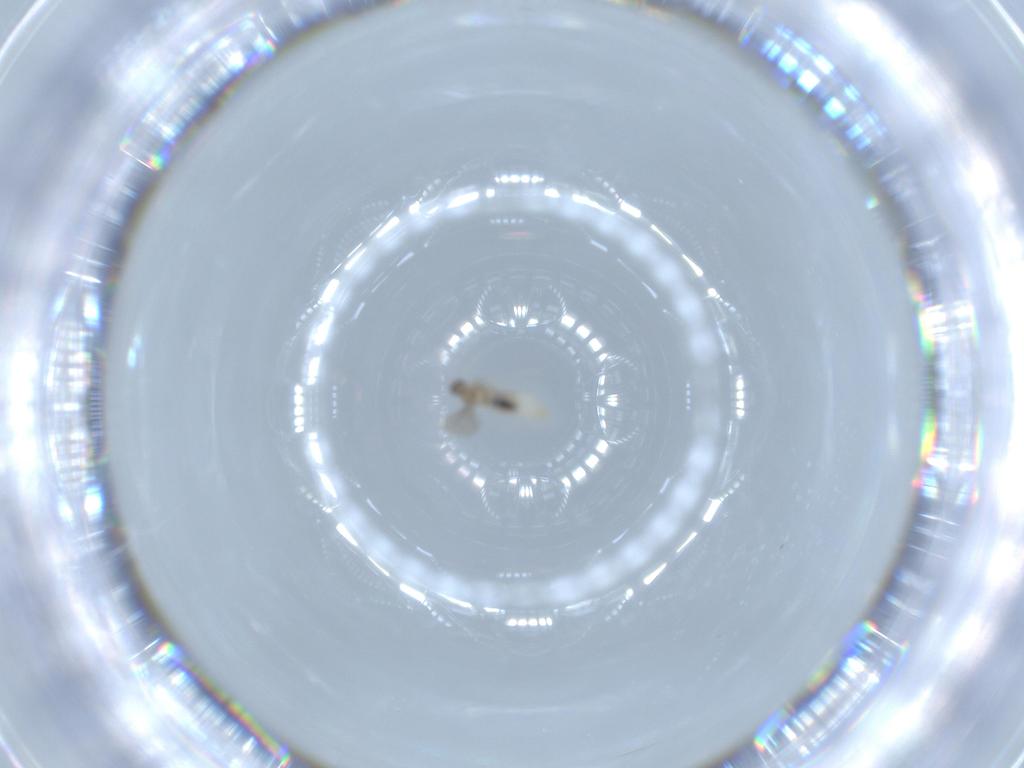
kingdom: Animalia
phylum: Arthropoda
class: Insecta
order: Diptera
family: Cecidomyiidae
